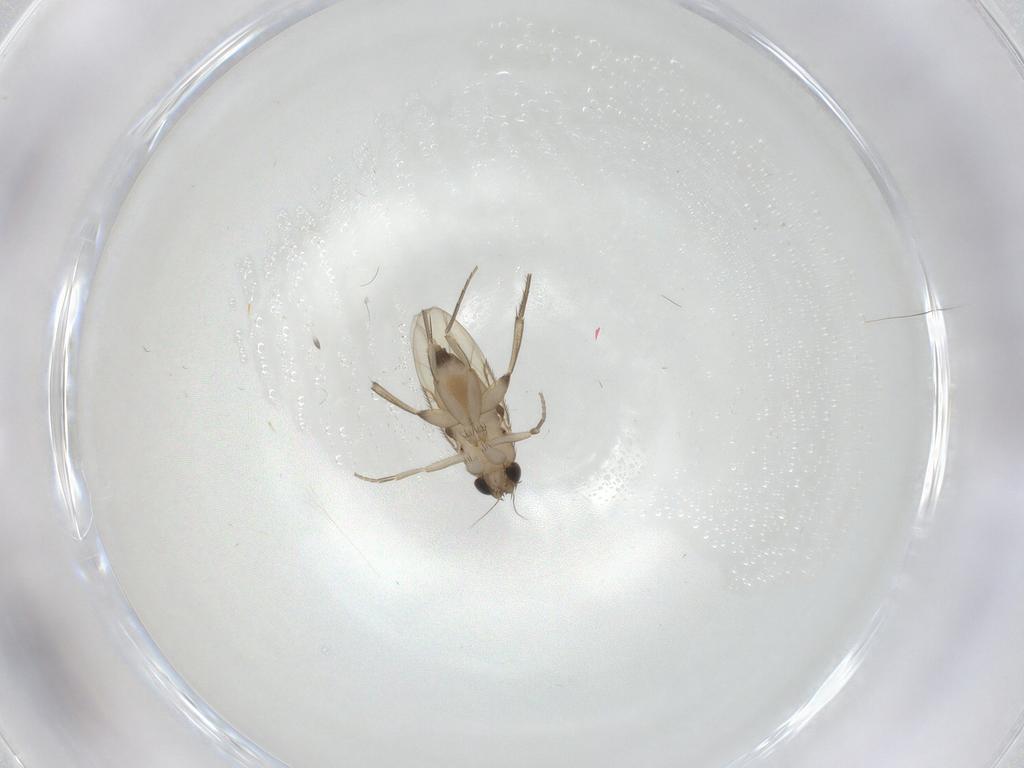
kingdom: Animalia
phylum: Arthropoda
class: Insecta
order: Diptera
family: Phoridae
